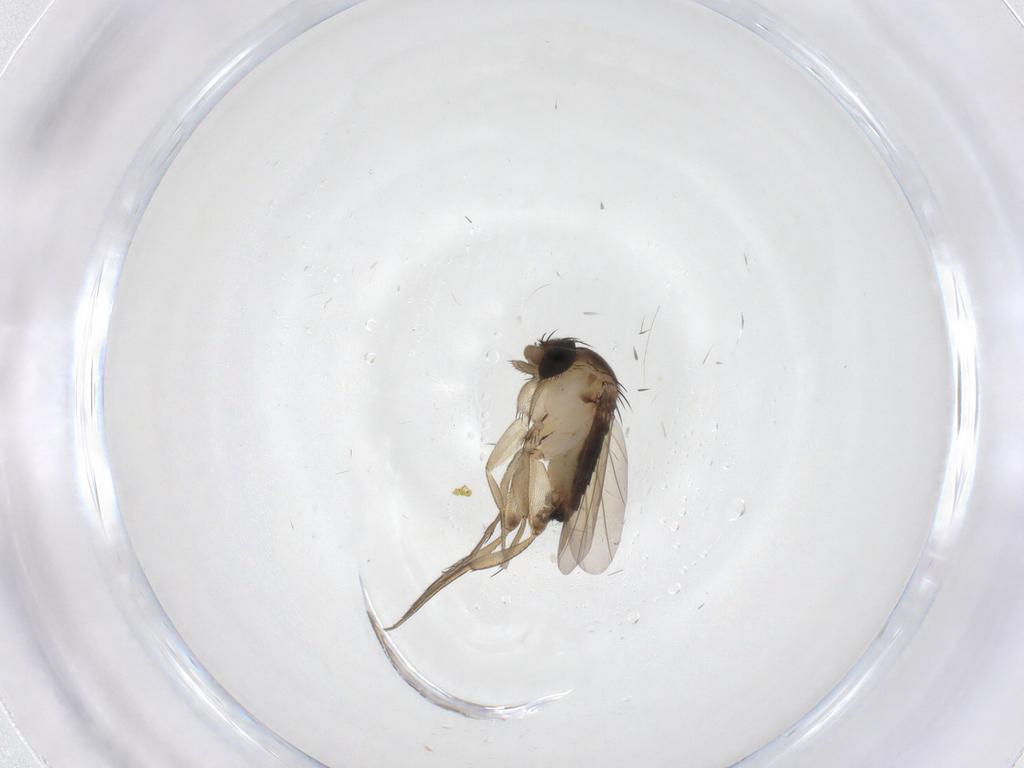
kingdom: Animalia
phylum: Arthropoda
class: Insecta
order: Diptera
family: Phoridae
